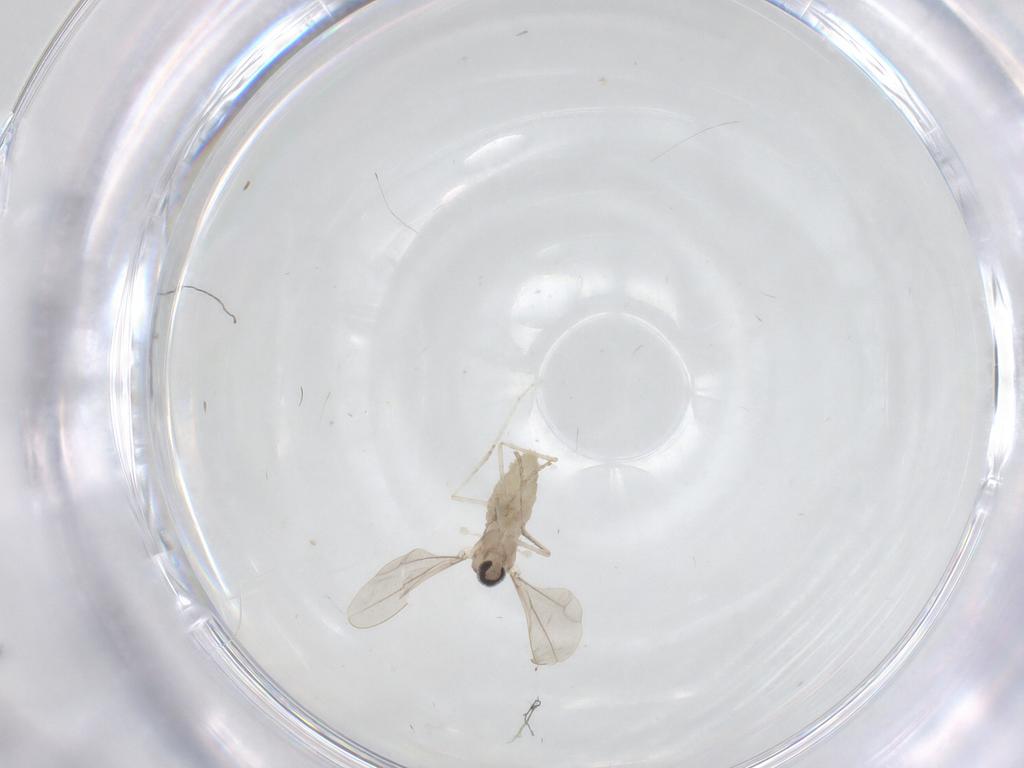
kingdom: Animalia
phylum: Arthropoda
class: Insecta
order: Diptera
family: Cecidomyiidae
